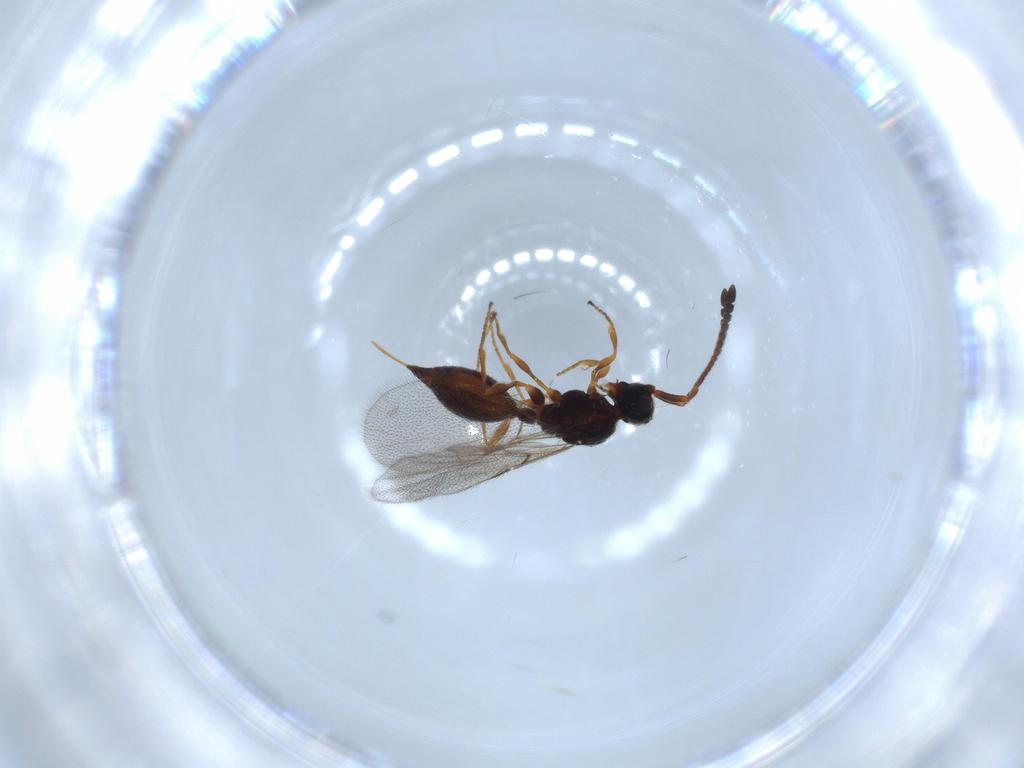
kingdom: Animalia
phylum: Arthropoda
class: Insecta
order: Hymenoptera
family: Diapriidae
